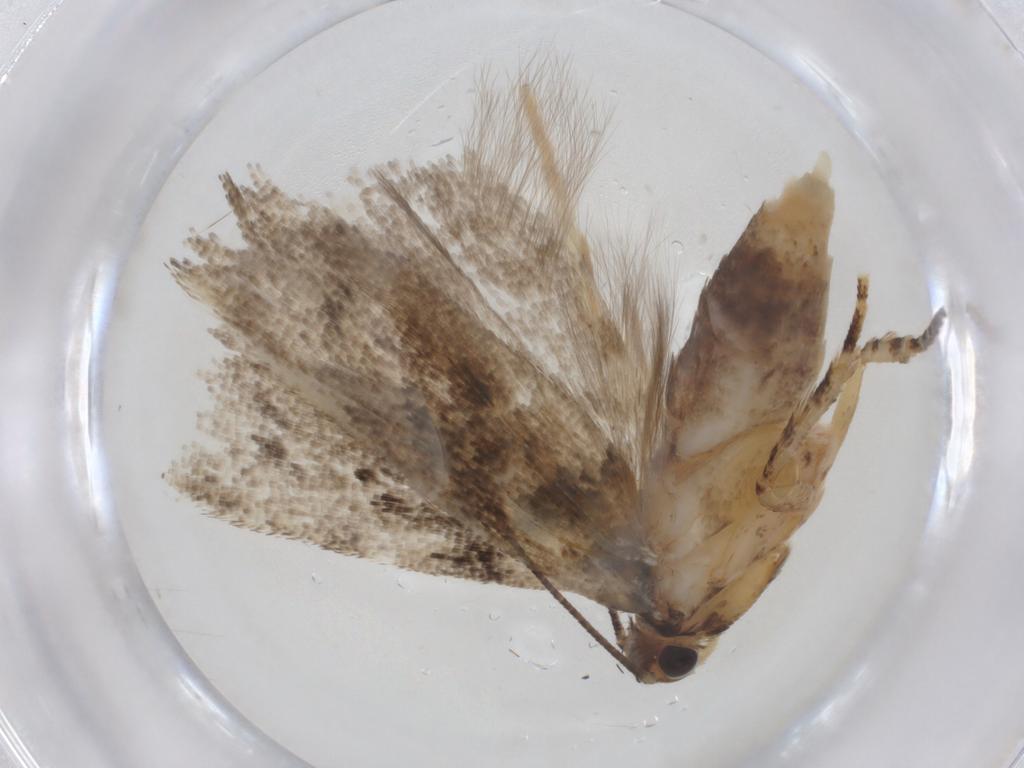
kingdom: Animalia
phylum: Arthropoda
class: Insecta
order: Lepidoptera
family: Gelechiidae
